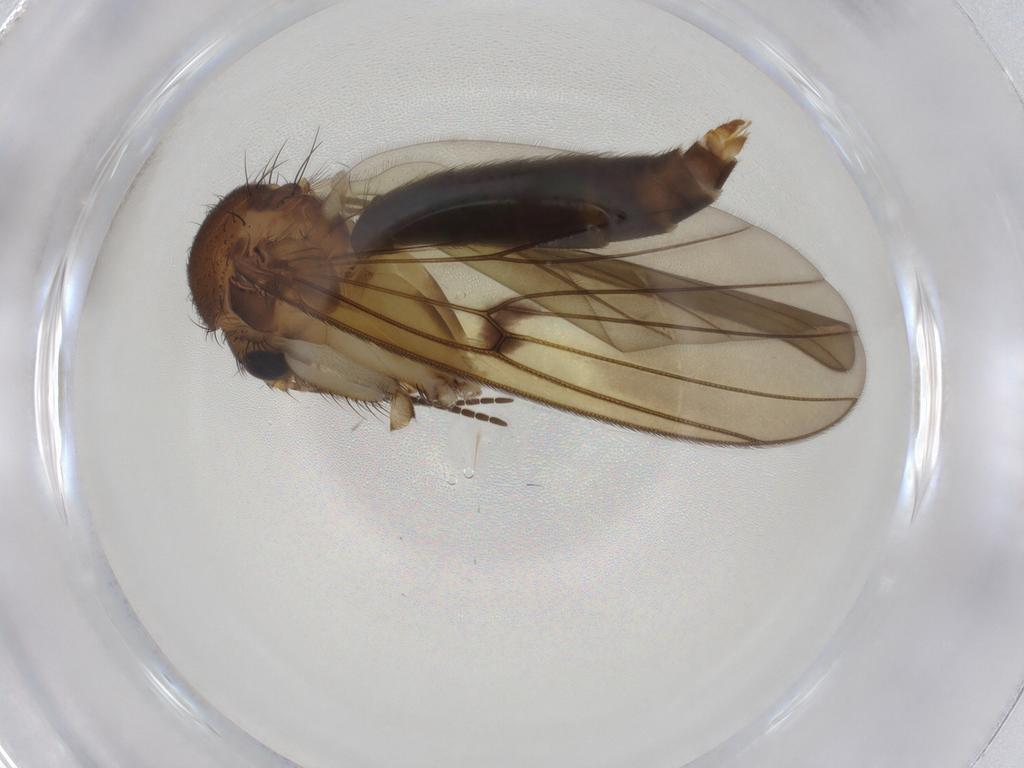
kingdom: Animalia
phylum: Arthropoda
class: Insecta
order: Diptera
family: Mycetophilidae
